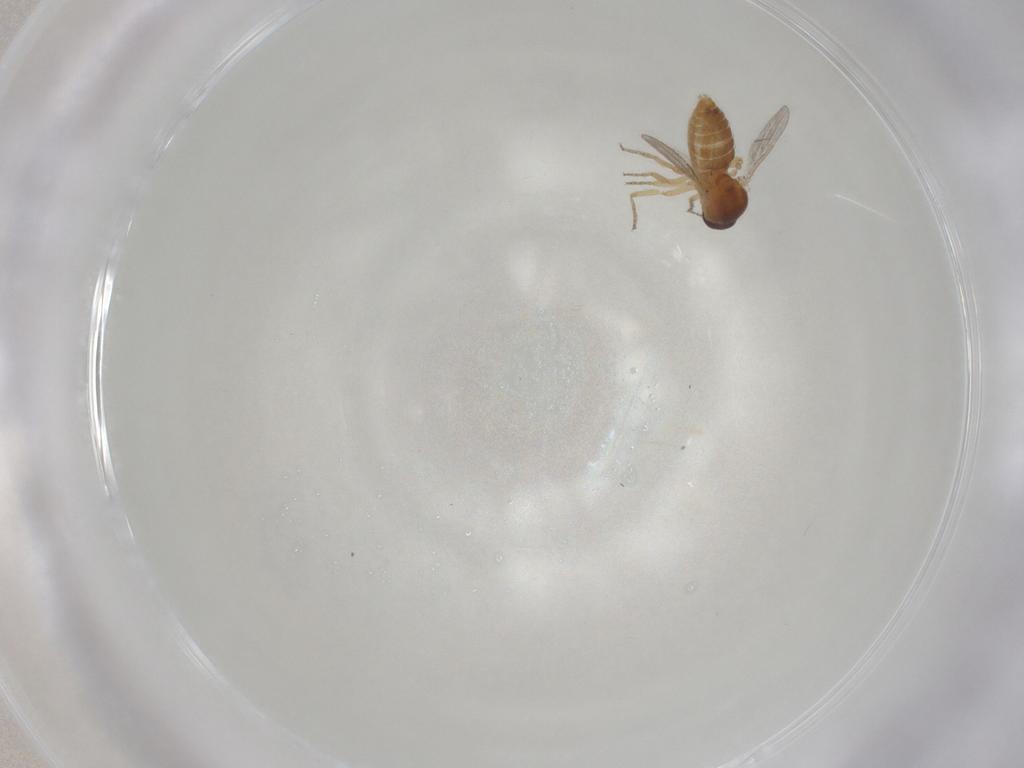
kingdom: Animalia
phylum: Arthropoda
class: Insecta
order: Diptera
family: Ceratopogonidae
